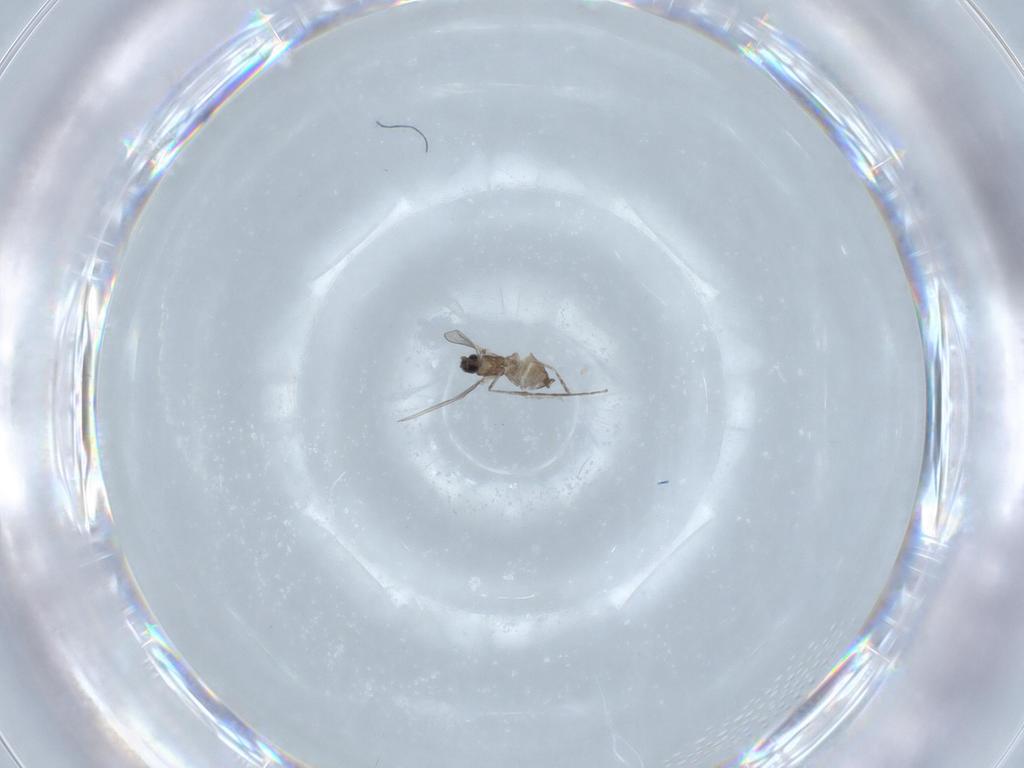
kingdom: Animalia
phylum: Arthropoda
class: Insecta
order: Diptera
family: Cecidomyiidae
